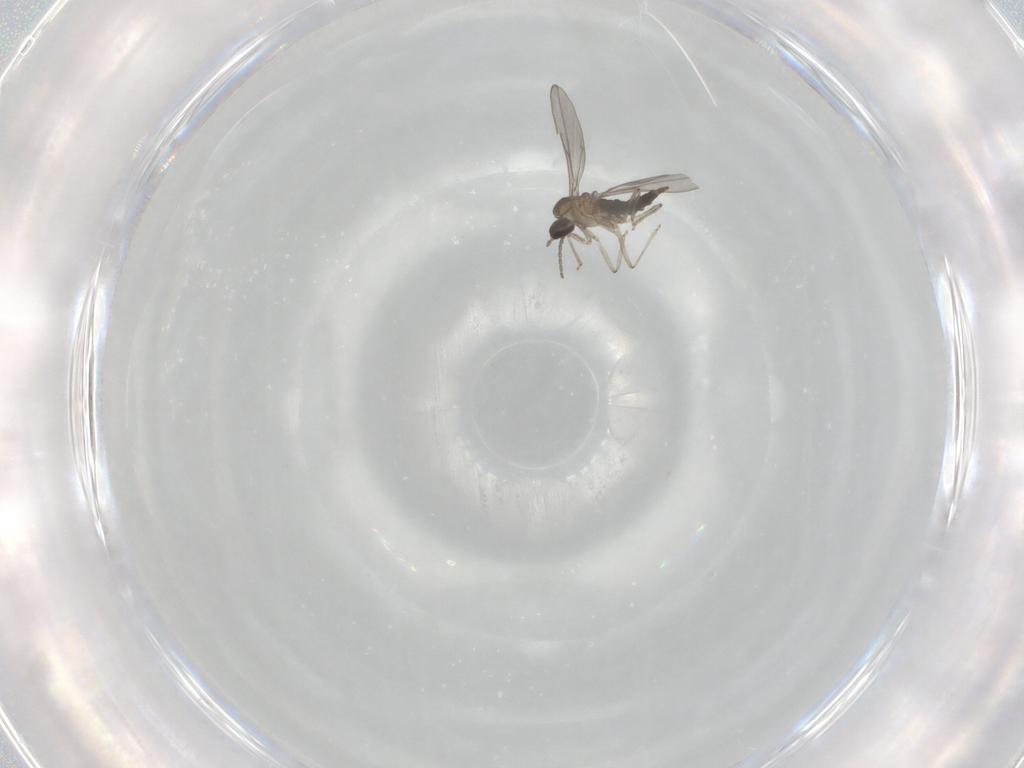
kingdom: Animalia
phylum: Arthropoda
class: Insecta
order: Diptera
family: Cecidomyiidae
